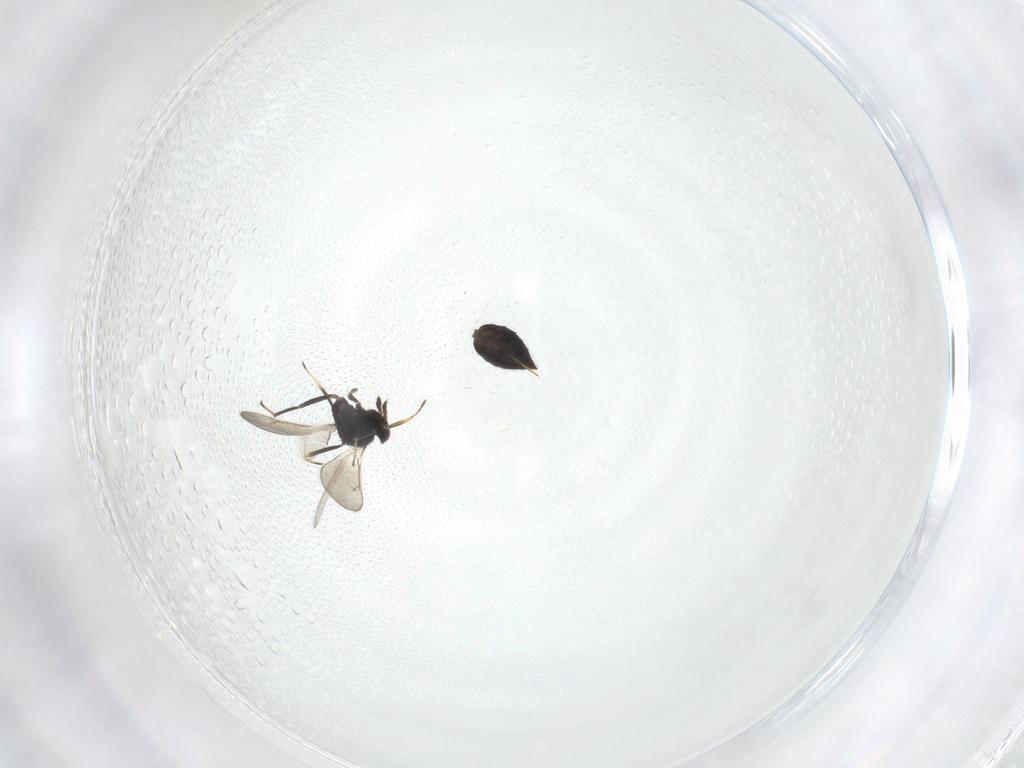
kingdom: Animalia
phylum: Arthropoda
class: Insecta
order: Hymenoptera
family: Eulophidae
